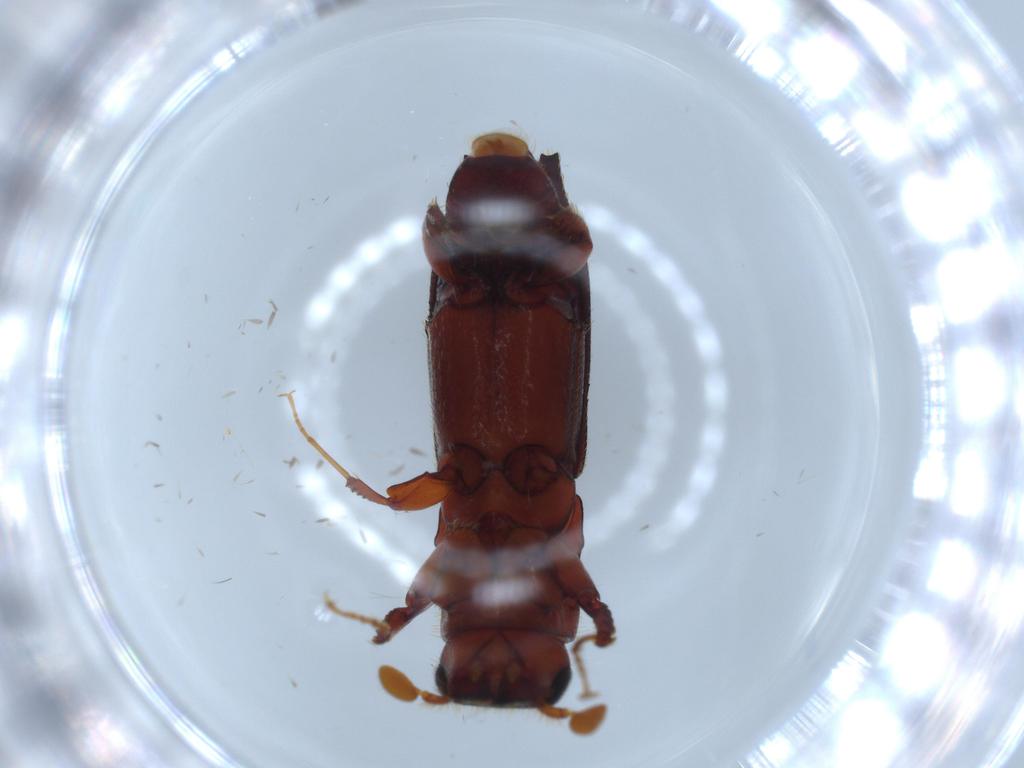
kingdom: Animalia
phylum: Arthropoda
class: Insecta
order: Coleoptera
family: Curculionidae
